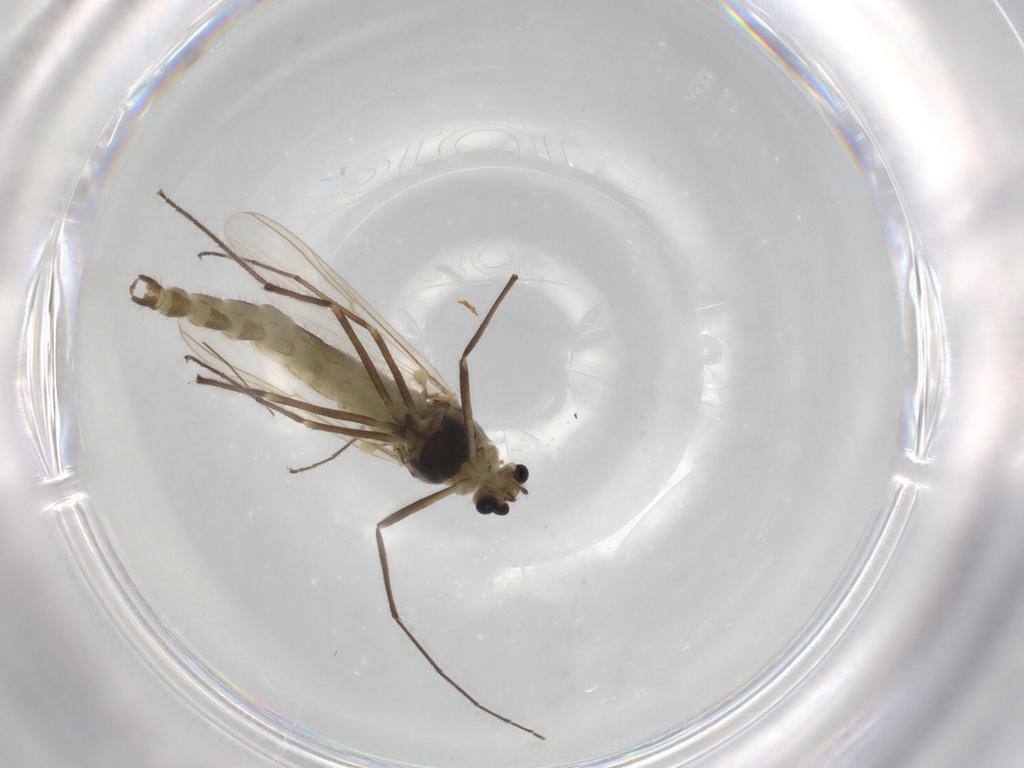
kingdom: Animalia
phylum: Arthropoda
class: Insecta
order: Diptera
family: Chironomidae
